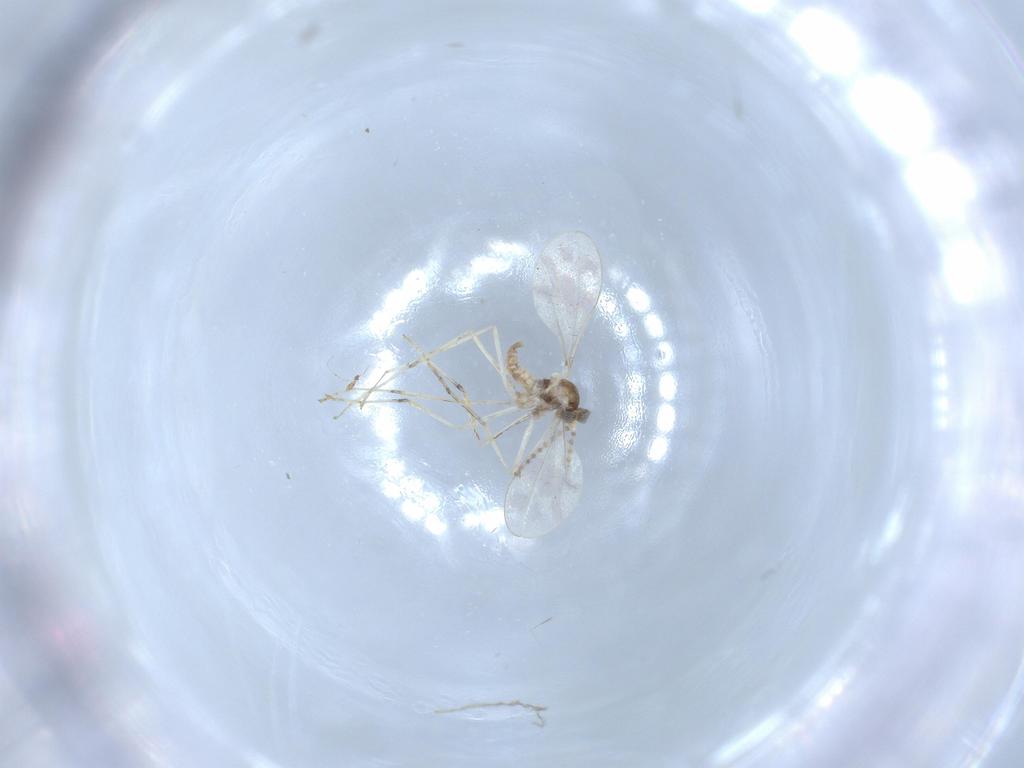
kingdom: Animalia
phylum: Arthropoda
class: Insecta
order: Diptera
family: Cecidomyiidae
